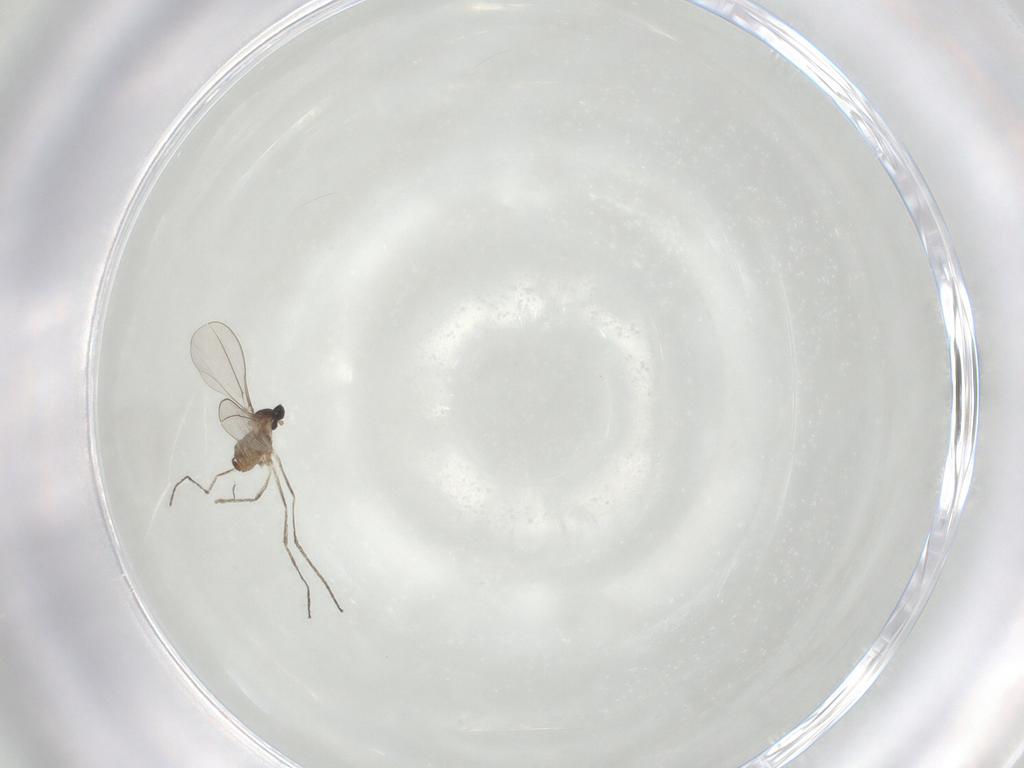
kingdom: Animalia
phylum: Arthropoda
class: Insecta
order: Diptera
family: Cecidomyiidae
